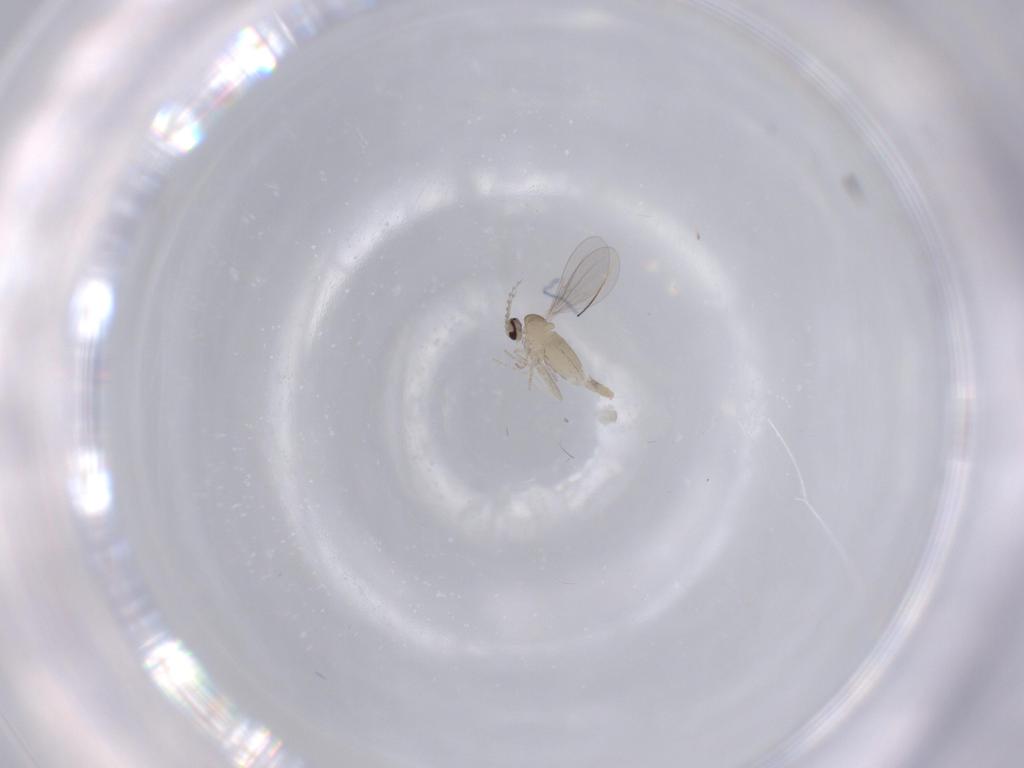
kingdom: Animalia
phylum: Arthropoda
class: Insecta
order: Diptera
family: Cecidomyiidae
